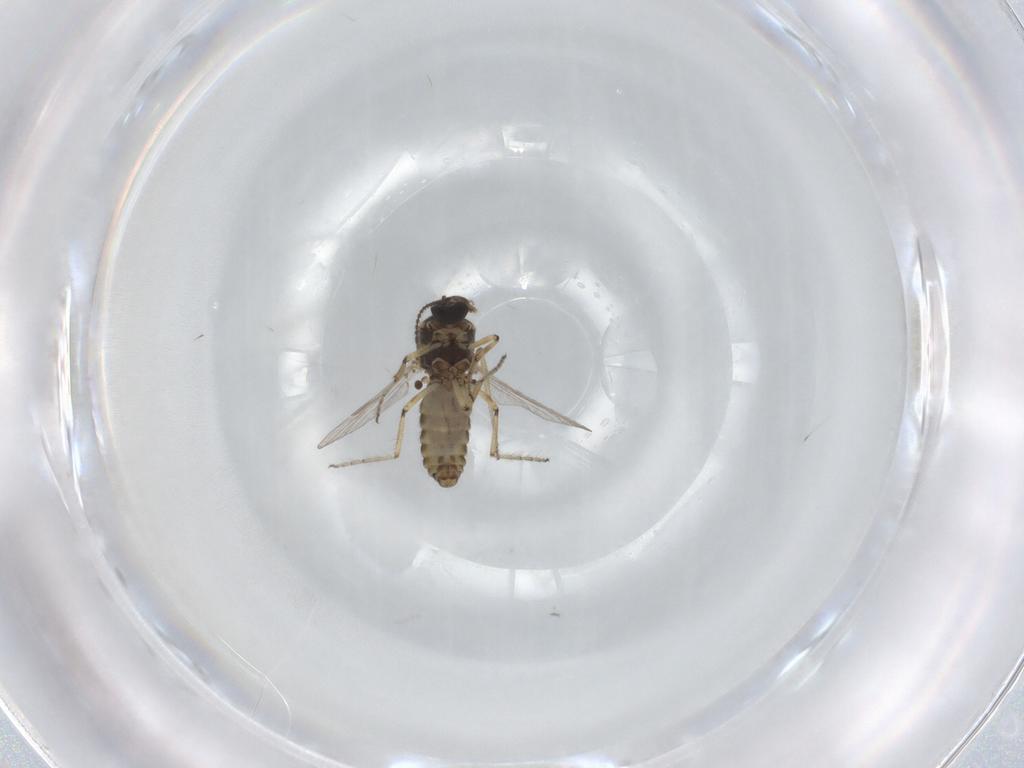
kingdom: Animalia
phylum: Arthropoda
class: Insecta
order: Diptera
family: Ceratopogonidae
